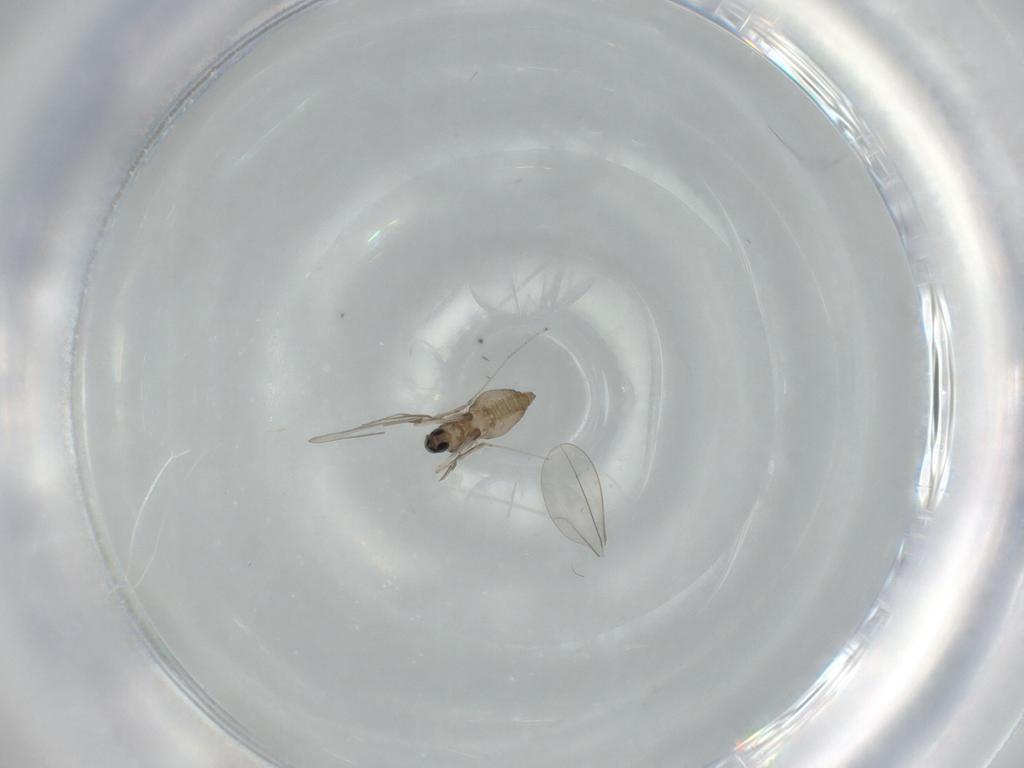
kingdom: Animalia
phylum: Arthropoda
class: Insecta
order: Diptera
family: Cecidomyiidae
